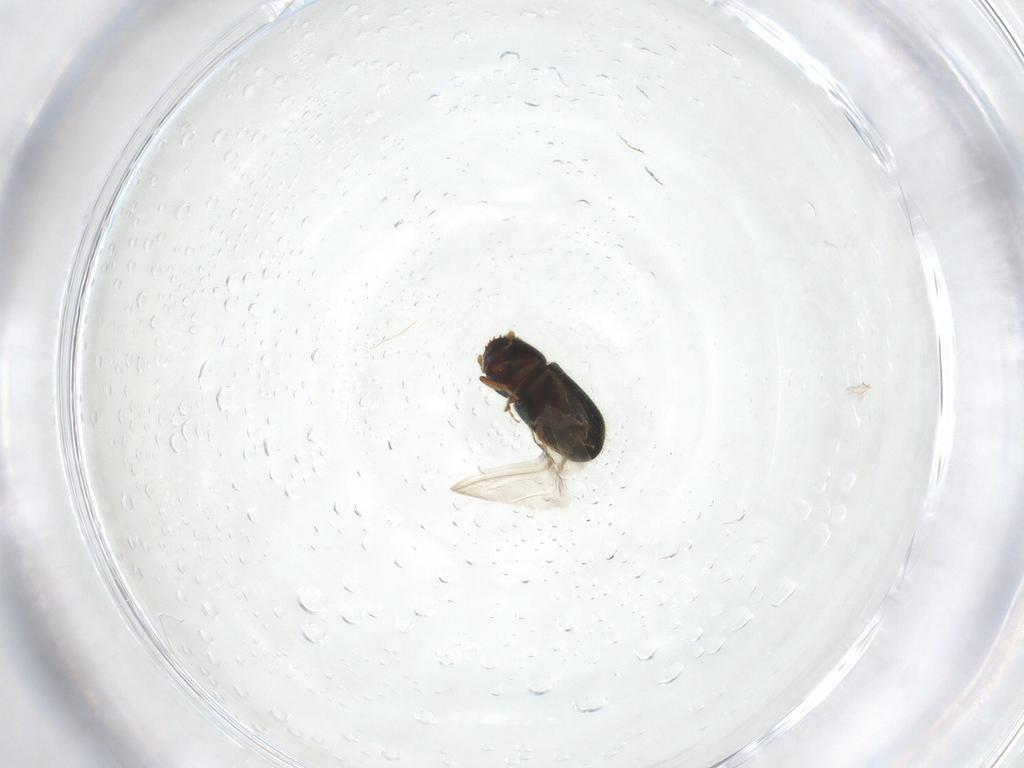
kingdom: Animalia
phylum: Arthropoda
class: Insecta
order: Coleoptera
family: Curculionidae
